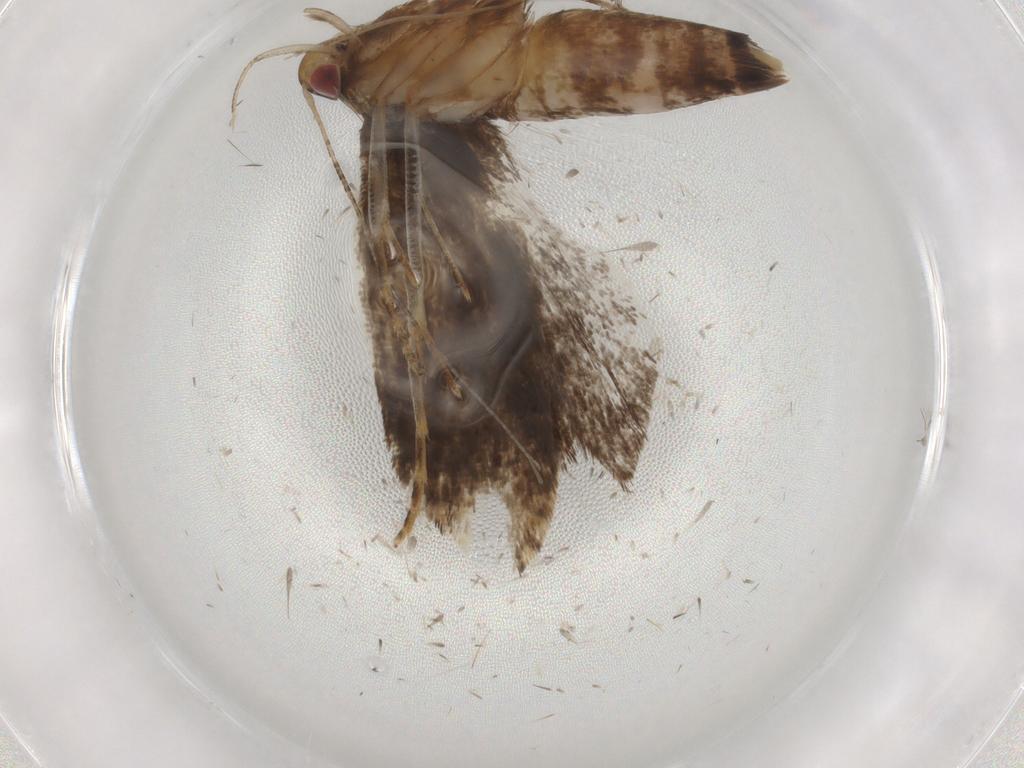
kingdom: Animalia
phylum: Arthropoda
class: Insecta
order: Lepidoptera
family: Gelechiidae
